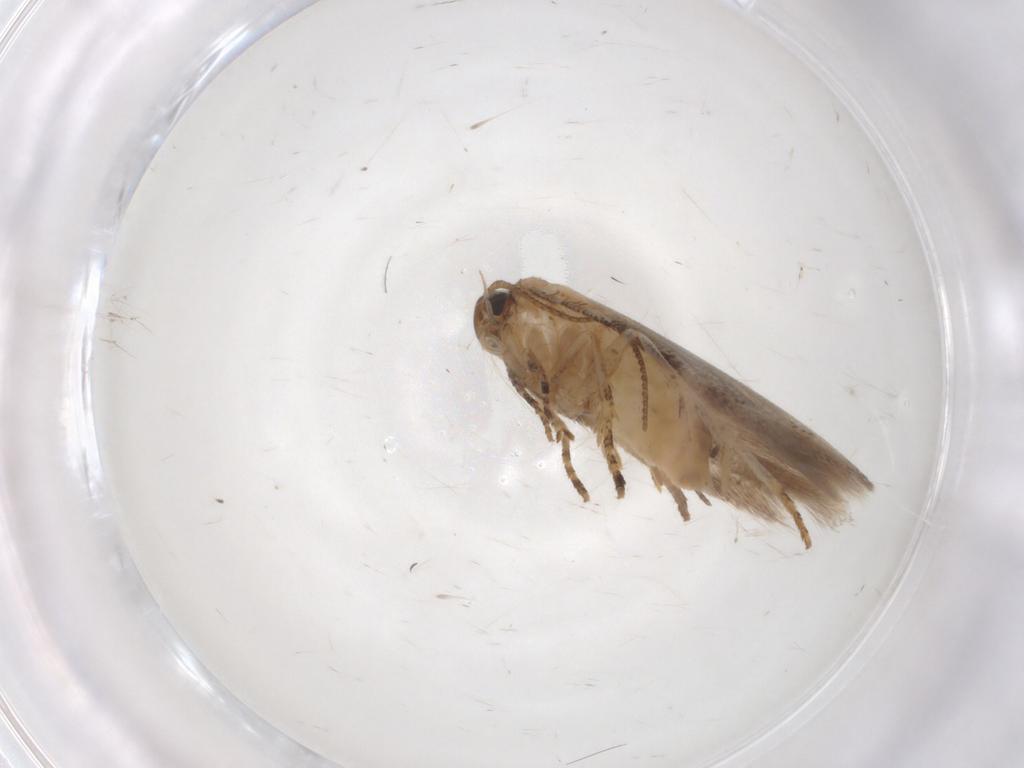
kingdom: Animalia
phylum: Arthropoda
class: Insecta
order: Lepidoptera
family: Gelechiidae
